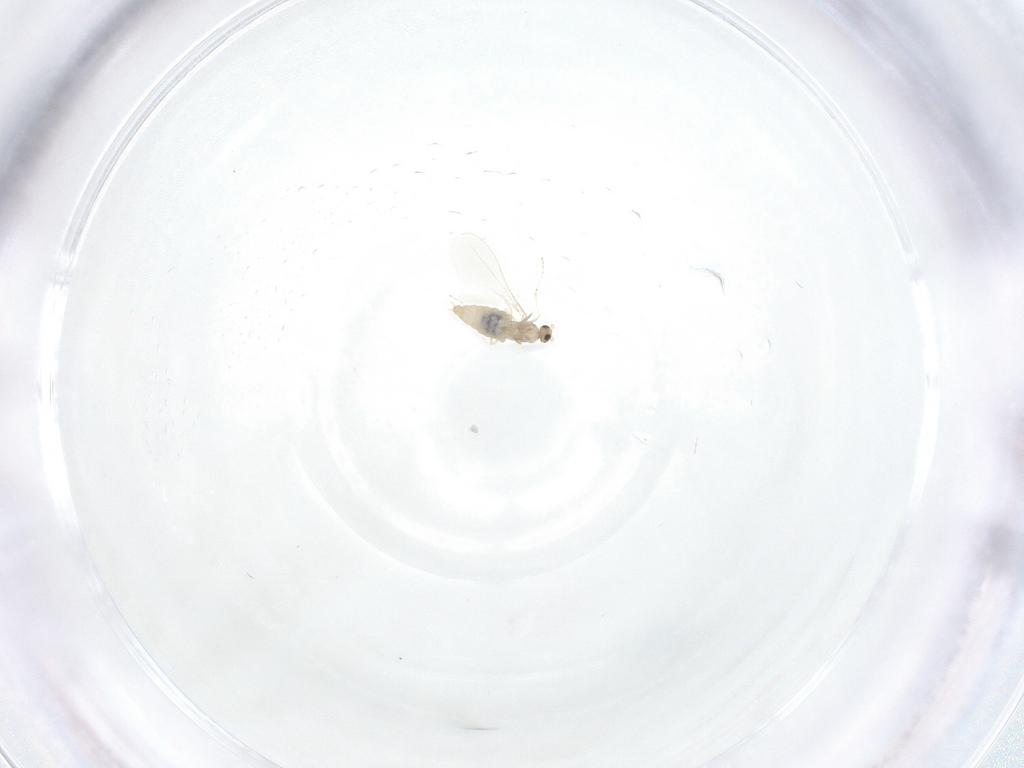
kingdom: Animalia
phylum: Arthropoda
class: Insecta
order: Diptera
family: Cecidomyiidae
